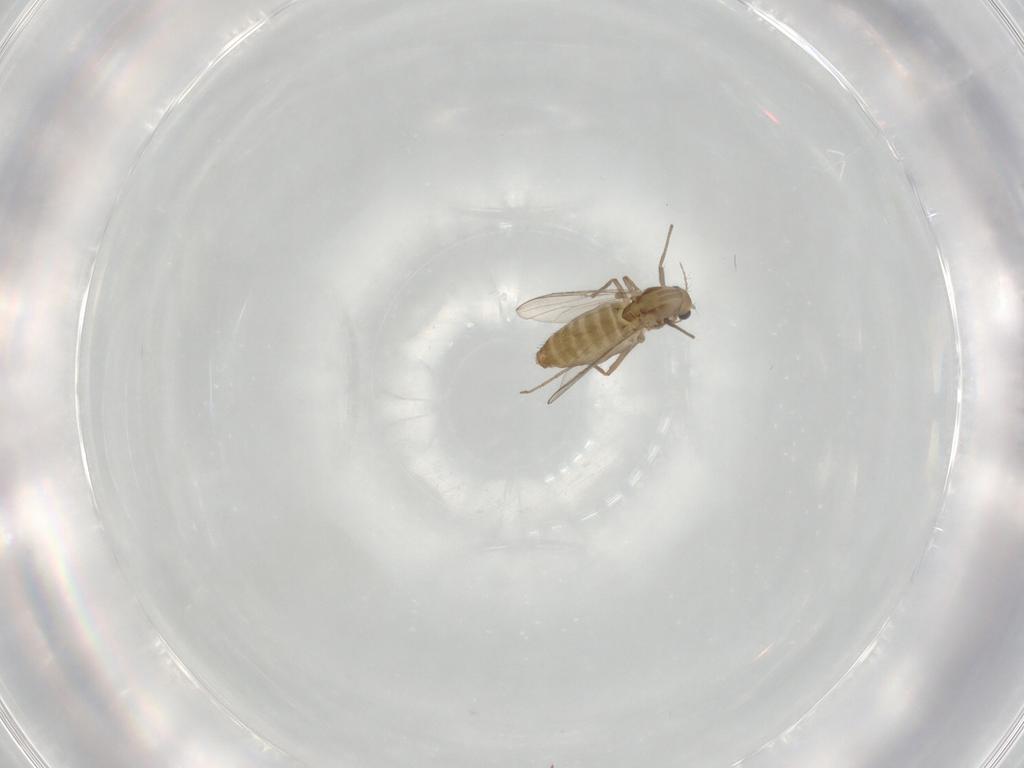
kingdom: Animalia
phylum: Arthropoda
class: Insecta
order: Diptera
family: Chironomidae
